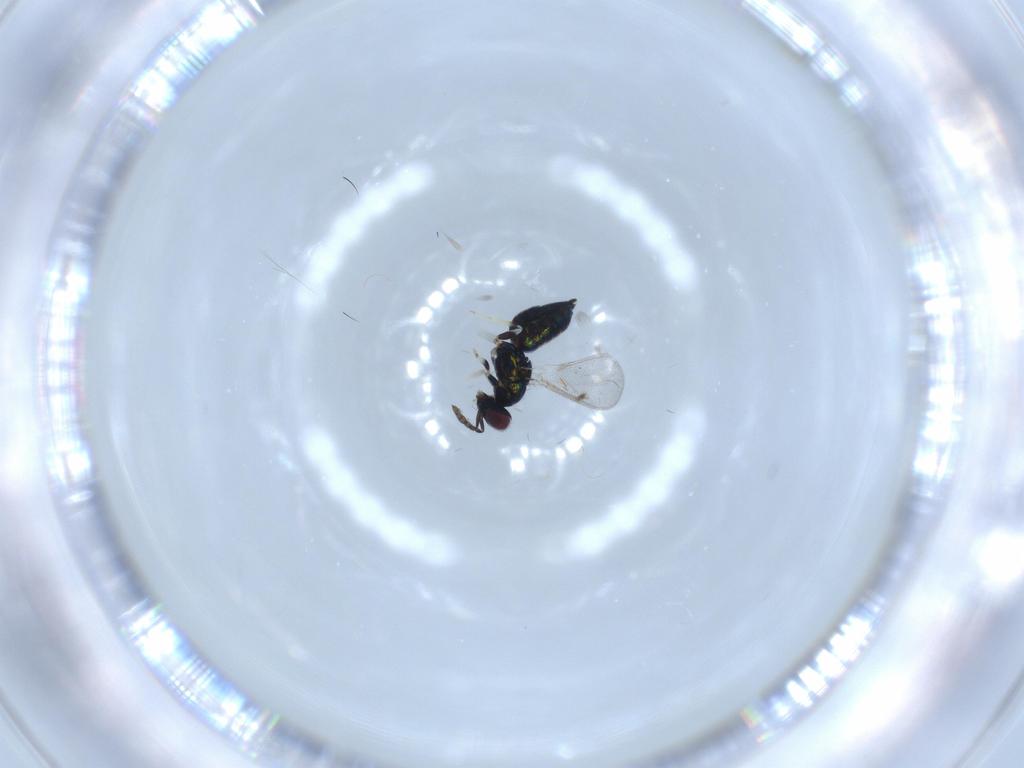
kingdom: Animalia
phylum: Arthropoda
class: Insecta
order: Hymenoptera
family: Eulophidae
